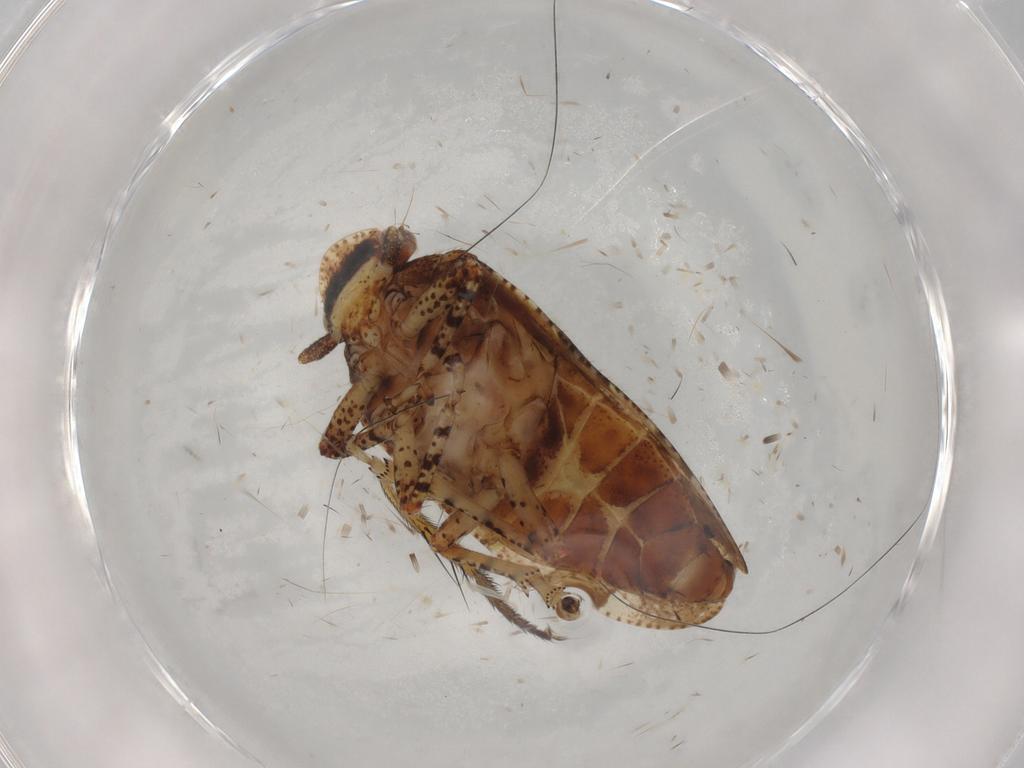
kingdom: Animalia
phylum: Arthropoda
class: Insecta
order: Hemiptera
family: Tettigometridae
